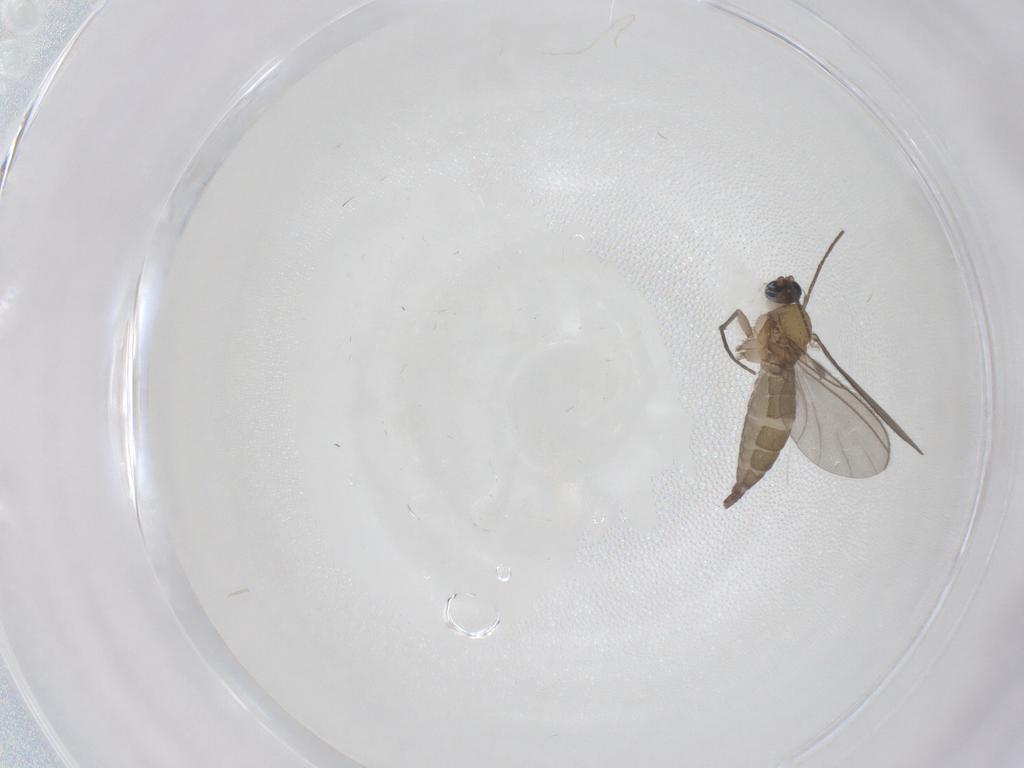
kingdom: Animalia
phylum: Arthropoda
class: Insecta
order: Diptera
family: Sciaridae
